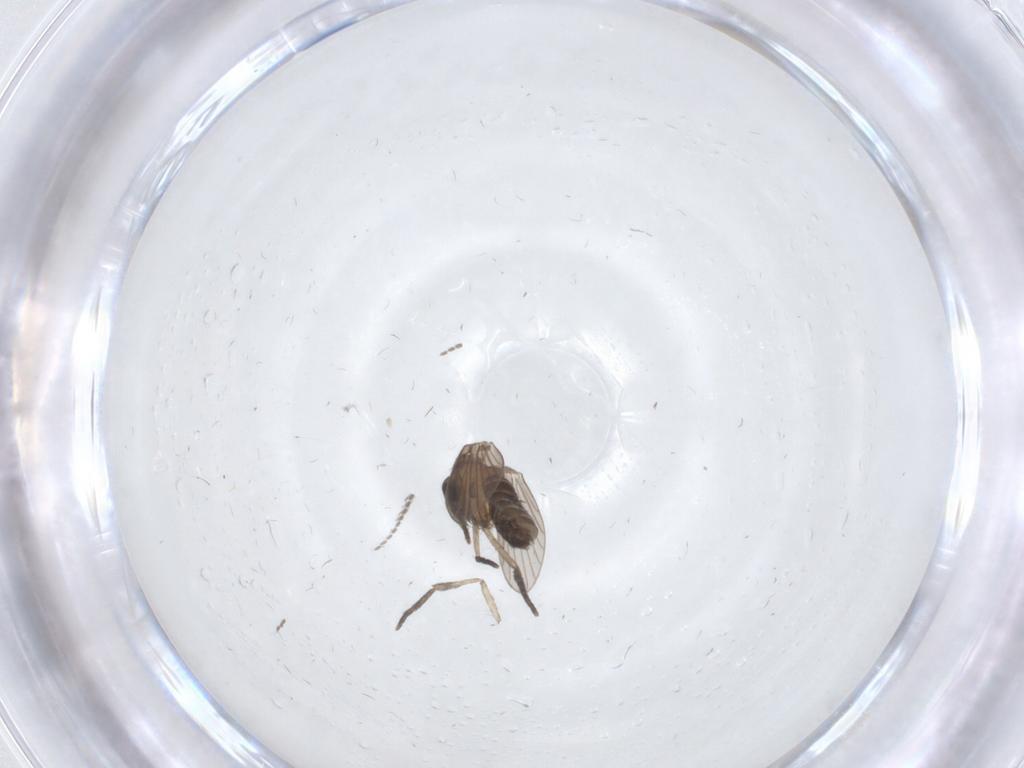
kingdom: Animalia
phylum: Arthropoda
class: Insecta
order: Diptera
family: Psychodidae
